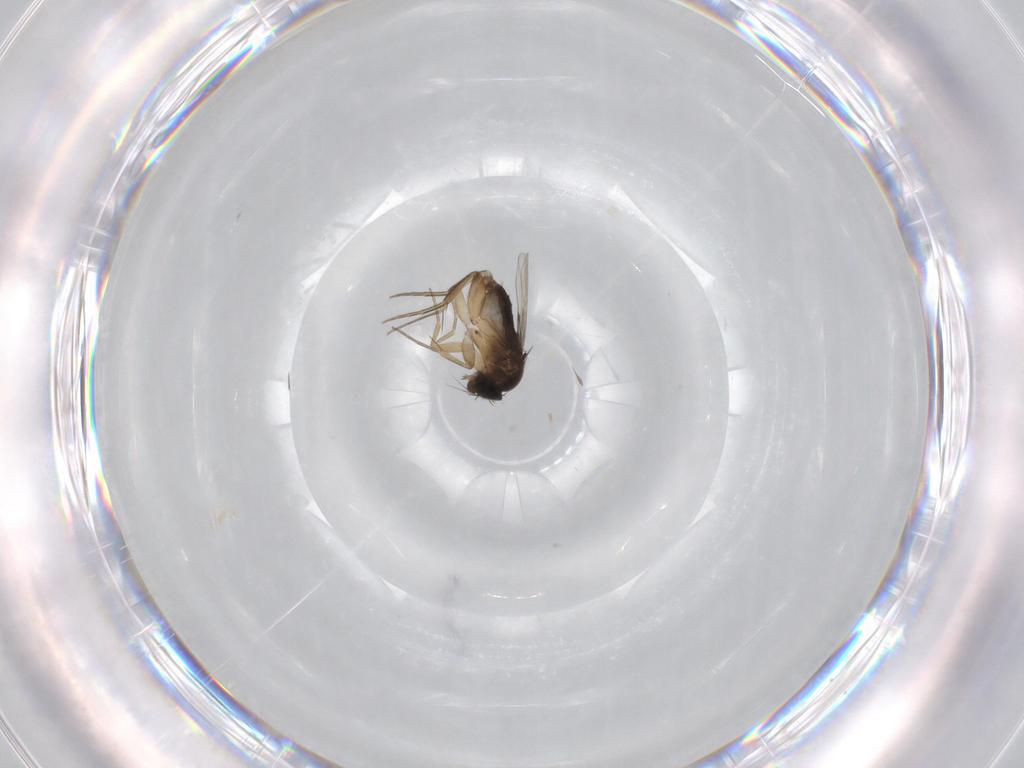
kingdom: Animalia
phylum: Arthropoda
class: Insecta
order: Diptera
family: Phoridae
